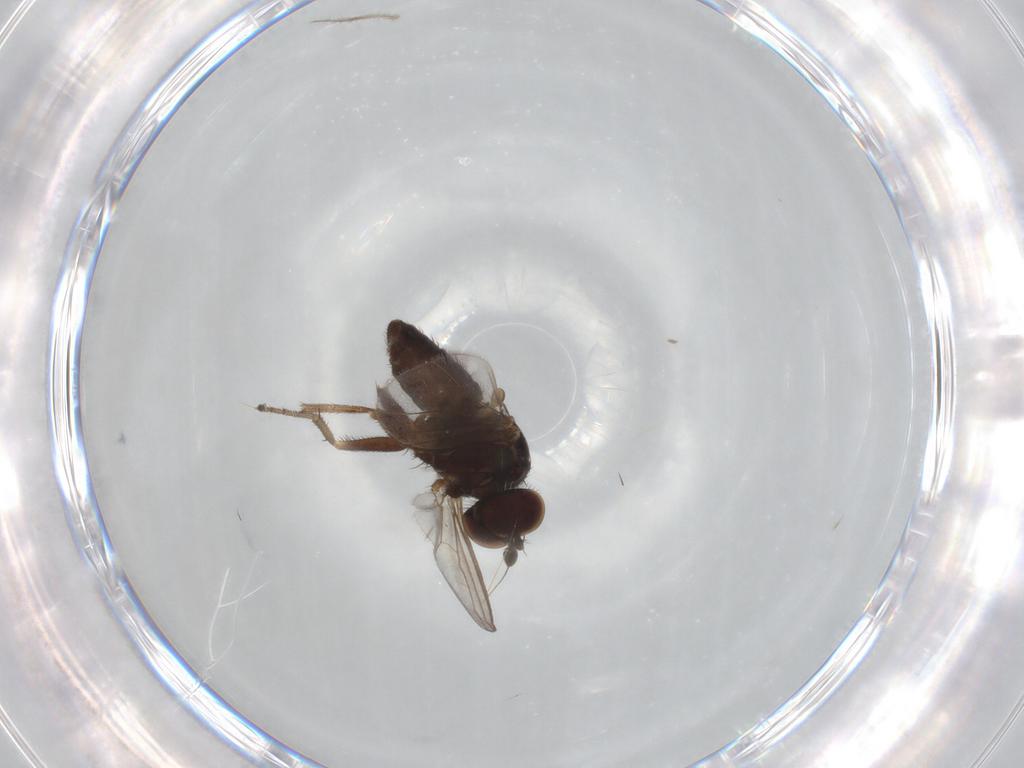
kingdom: Animalia
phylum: Arthropoda
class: Insecta
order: Diptera
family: Dolichopodidae
